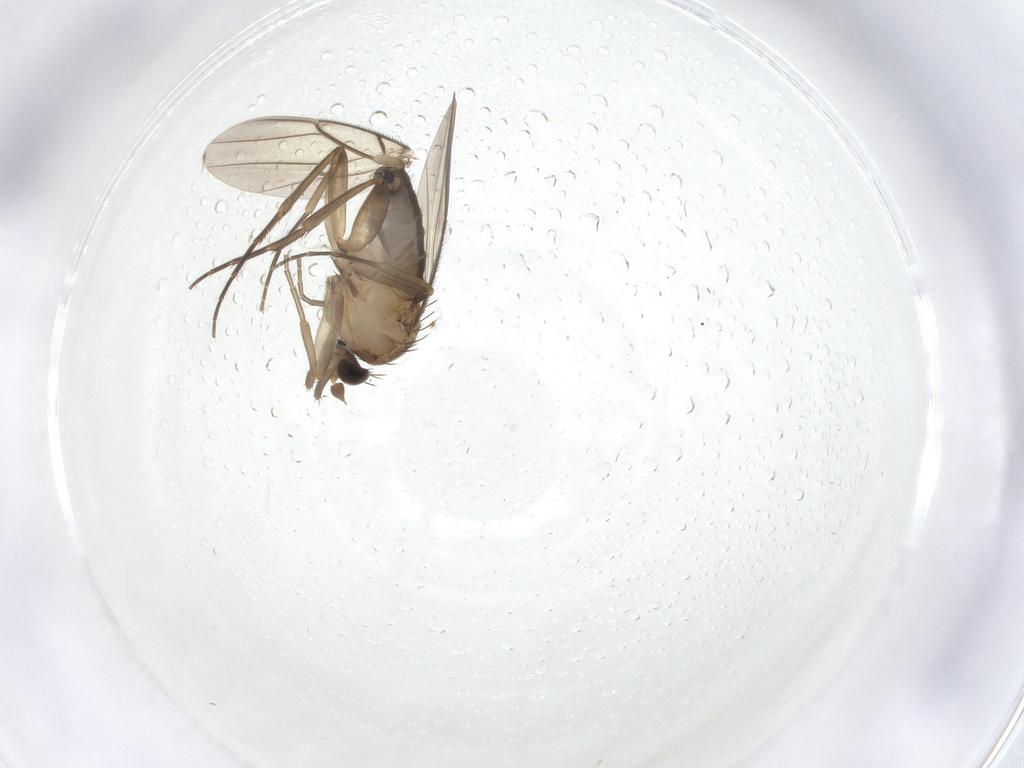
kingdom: Animalia
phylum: Arthropoda
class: Insecta
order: Diptera
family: Phoridae
